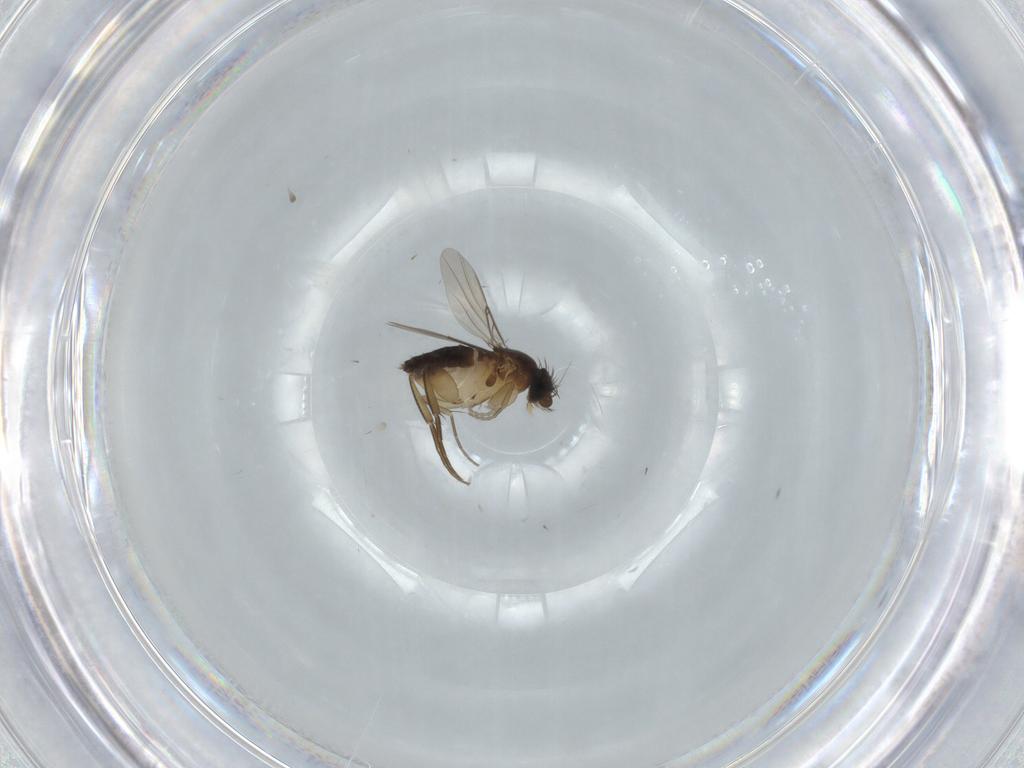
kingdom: Animalia
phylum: Arthropoda
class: Insecta
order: Diptera
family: Phoridae
